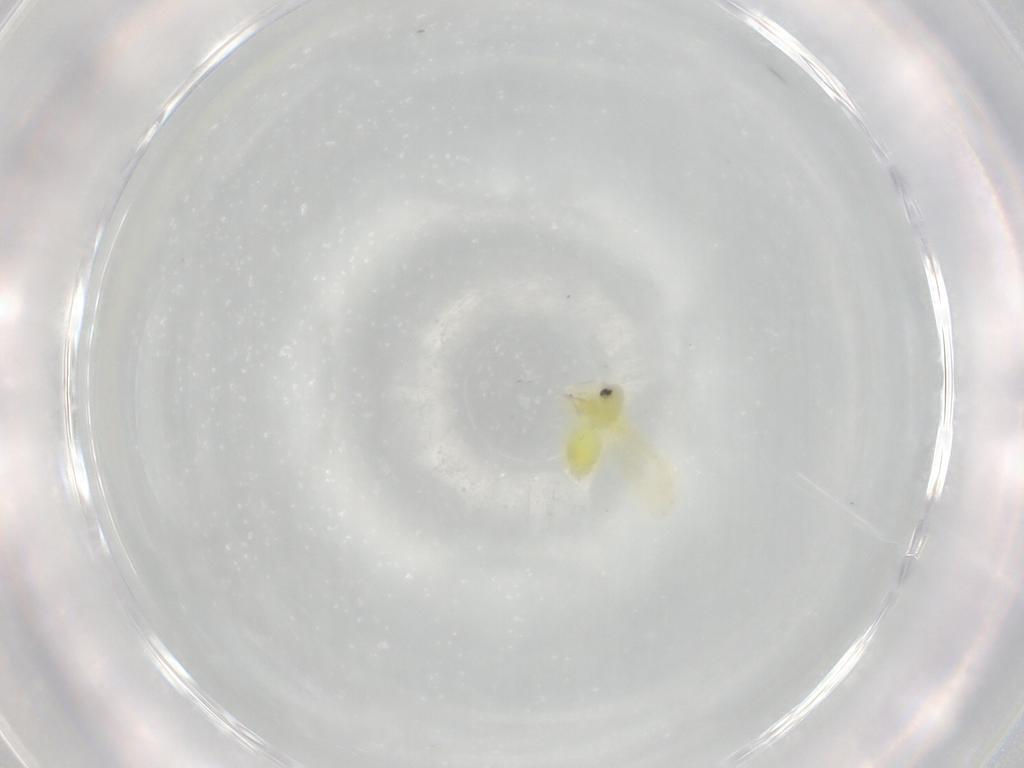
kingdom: Animalia
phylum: Arthropoda
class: Insecta
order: Hemiptera
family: Aleyrodidae
